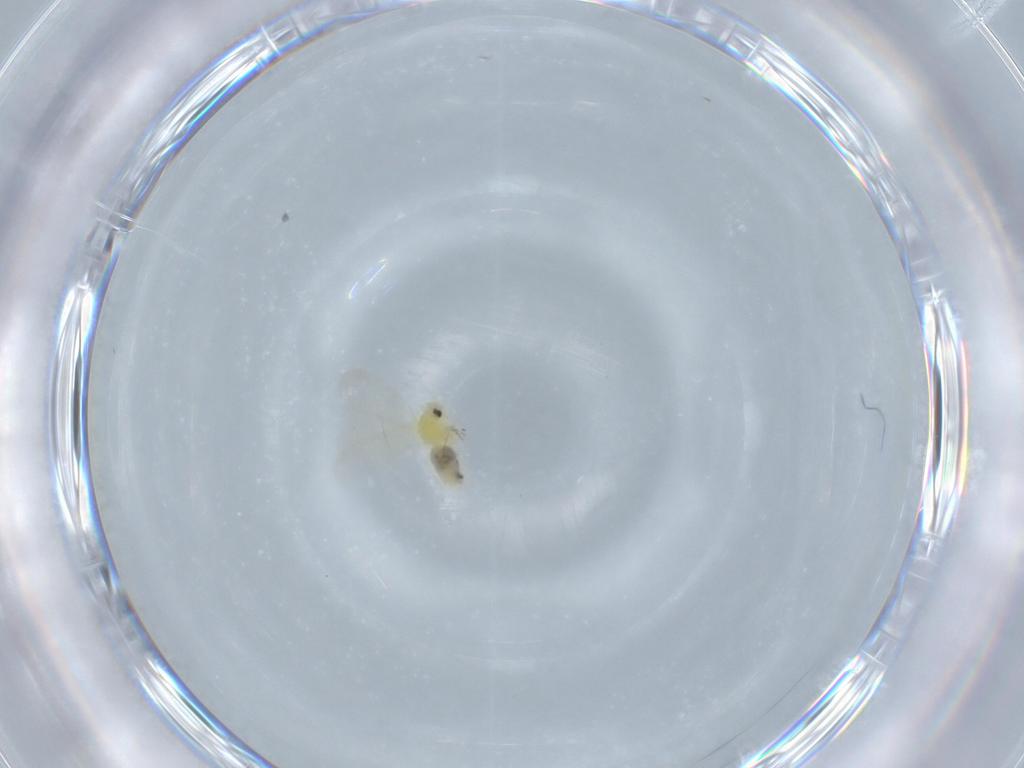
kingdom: Animalia
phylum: Arthropoda
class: Insecta
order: Hemiptera
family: Aleyrodidae
